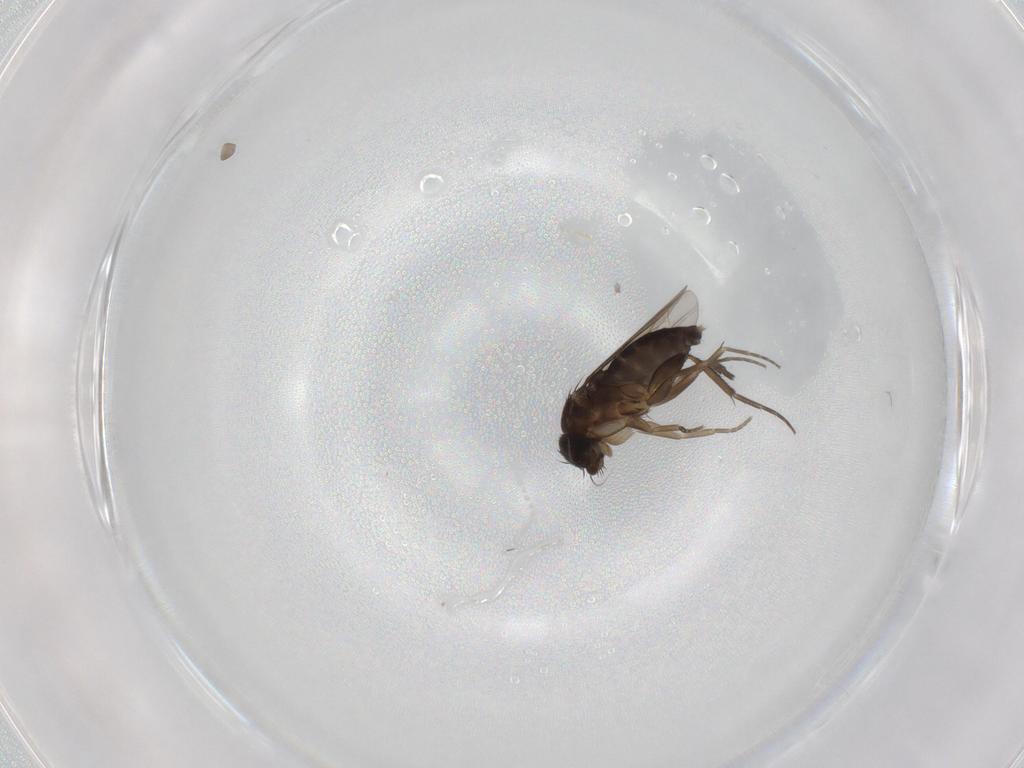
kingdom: Animalia
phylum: Arthropoda
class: Insecta
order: Diptera
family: Phoridae
